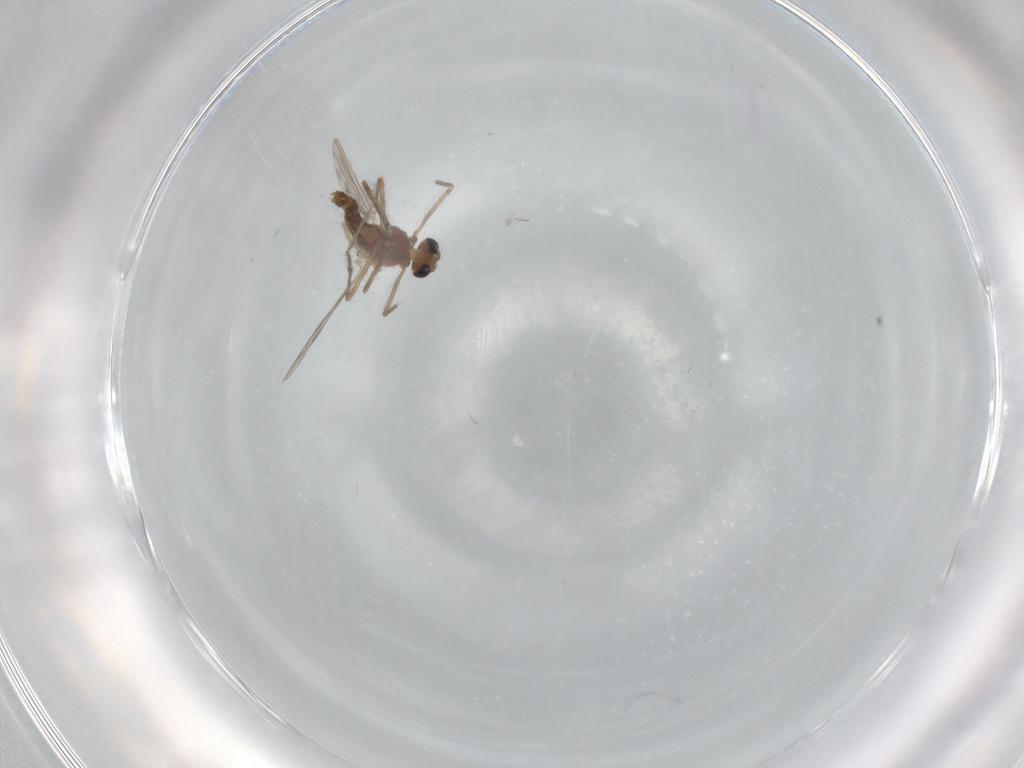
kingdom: Animalia
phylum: Arthropoda
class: Insecta
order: Diptera
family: Chironomidae
